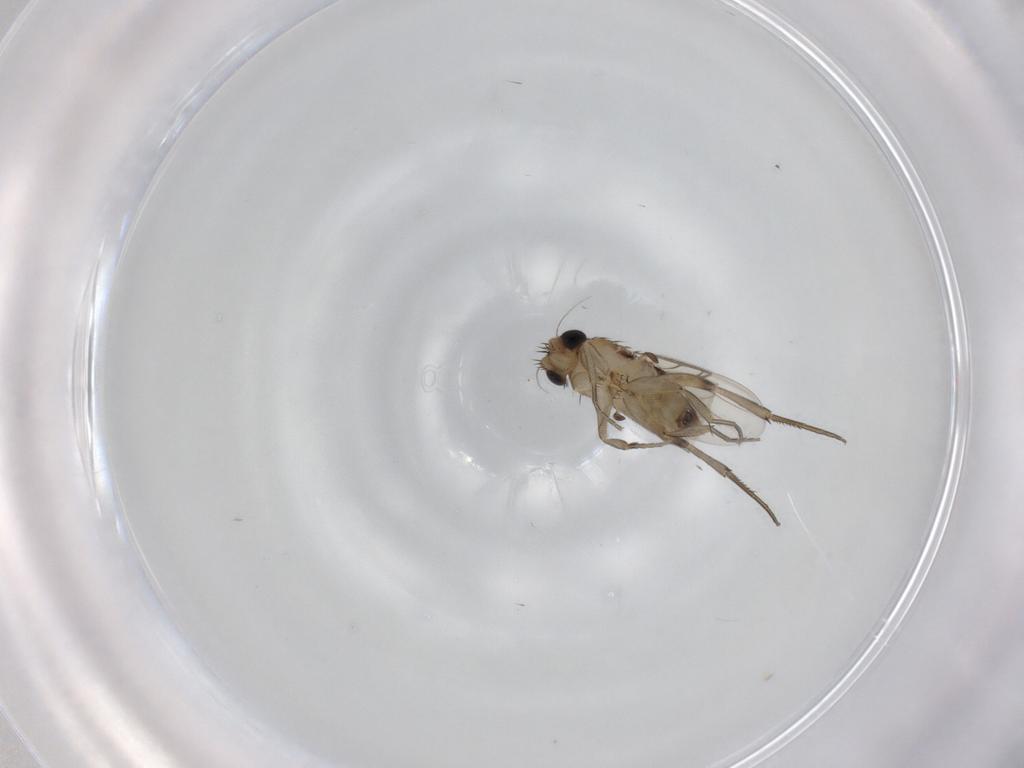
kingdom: Animalia
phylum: Arthropoda
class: Insecta
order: Diptera
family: Phoridae
